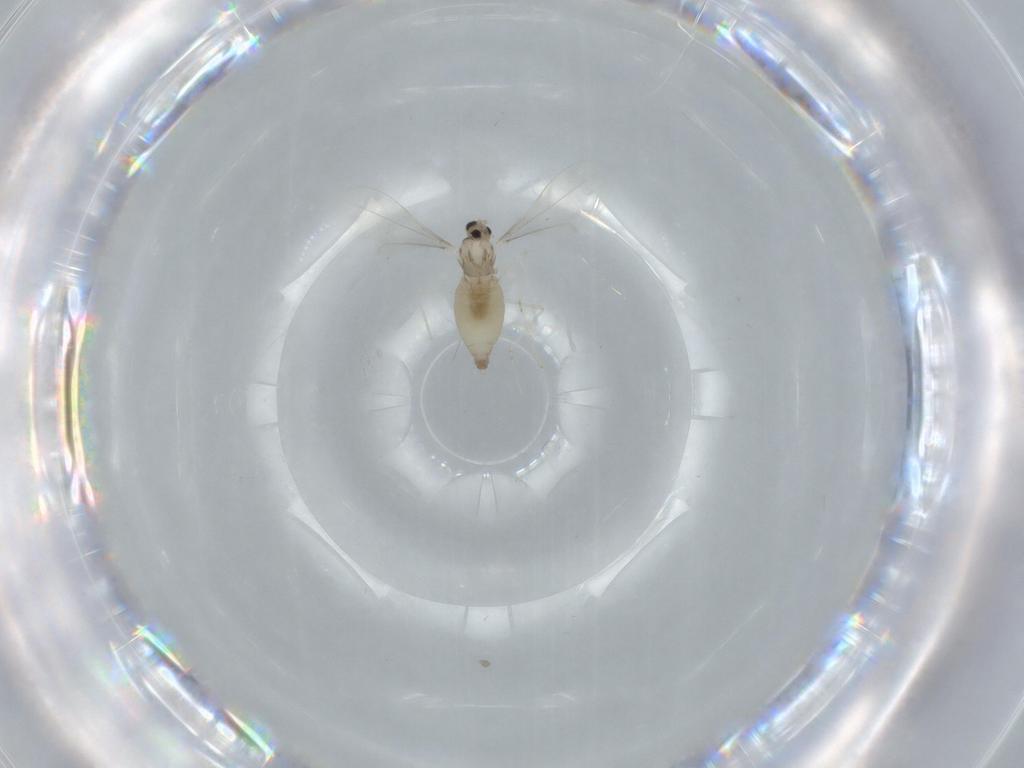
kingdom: Animalia
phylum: Arthropoda
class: Insecta
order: Diptera
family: Cecidomyiidae
